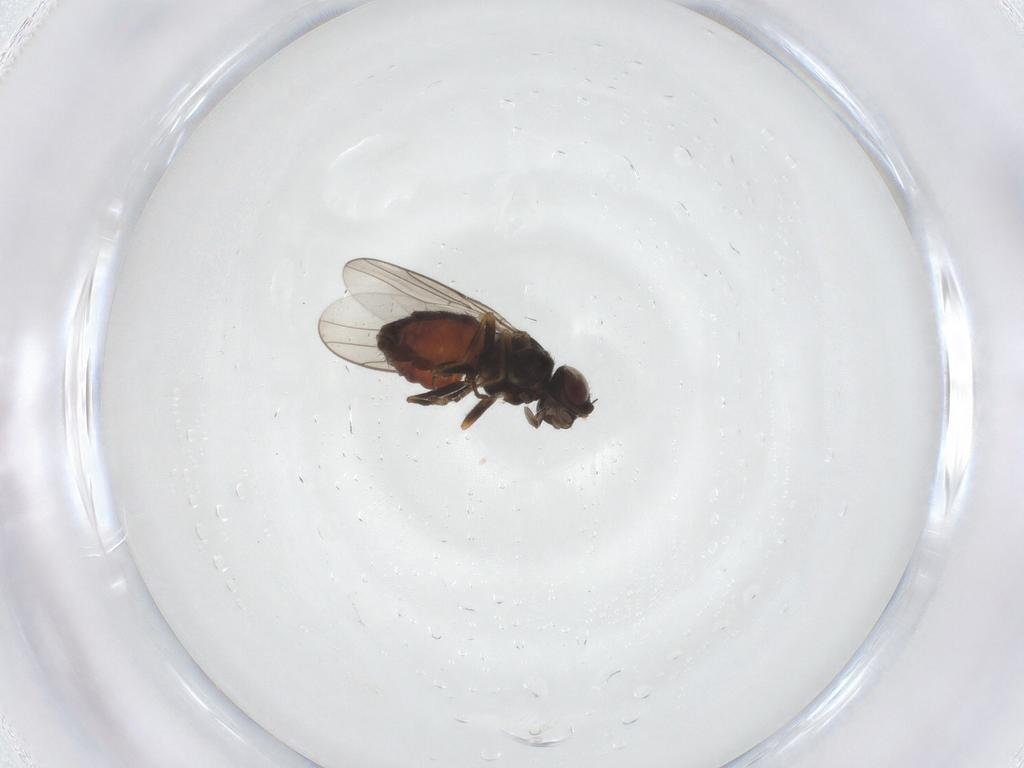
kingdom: Animalia
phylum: Arthropoda
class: Insecta
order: Diptera
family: Chloropidae
